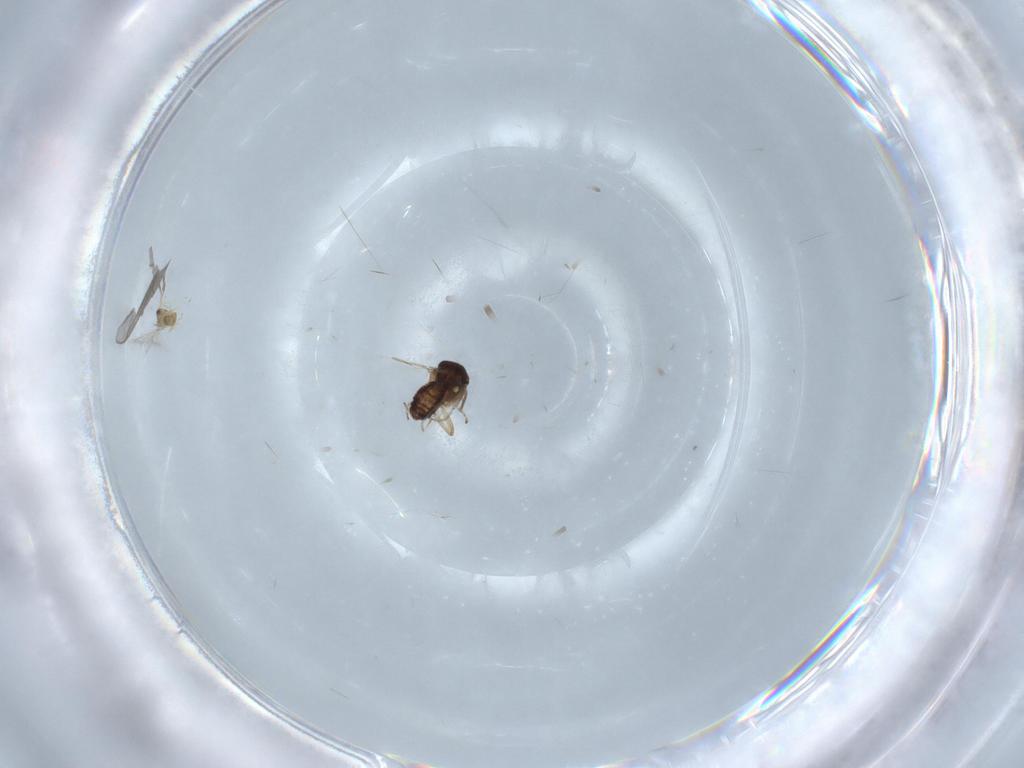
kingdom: Animalia
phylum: Arthropoda
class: Insecta
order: Diptera
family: Ceratopogonidae
